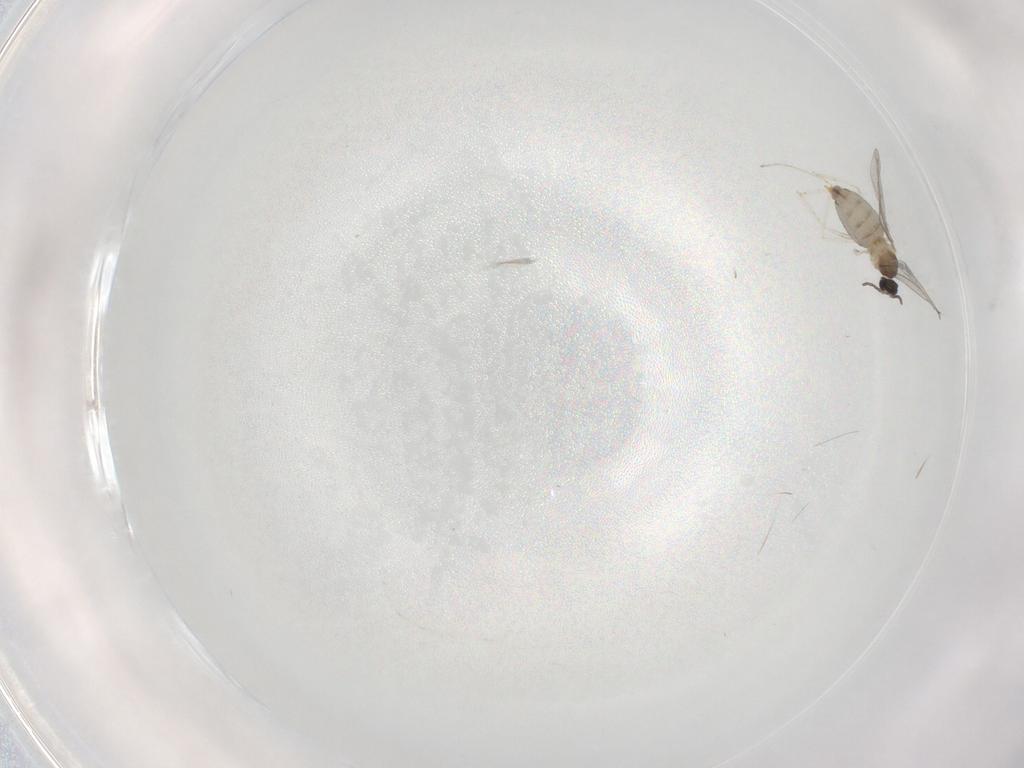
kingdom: Animalia
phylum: Arthropoda
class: Insecta
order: Diptera
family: Cecidomyiidae
